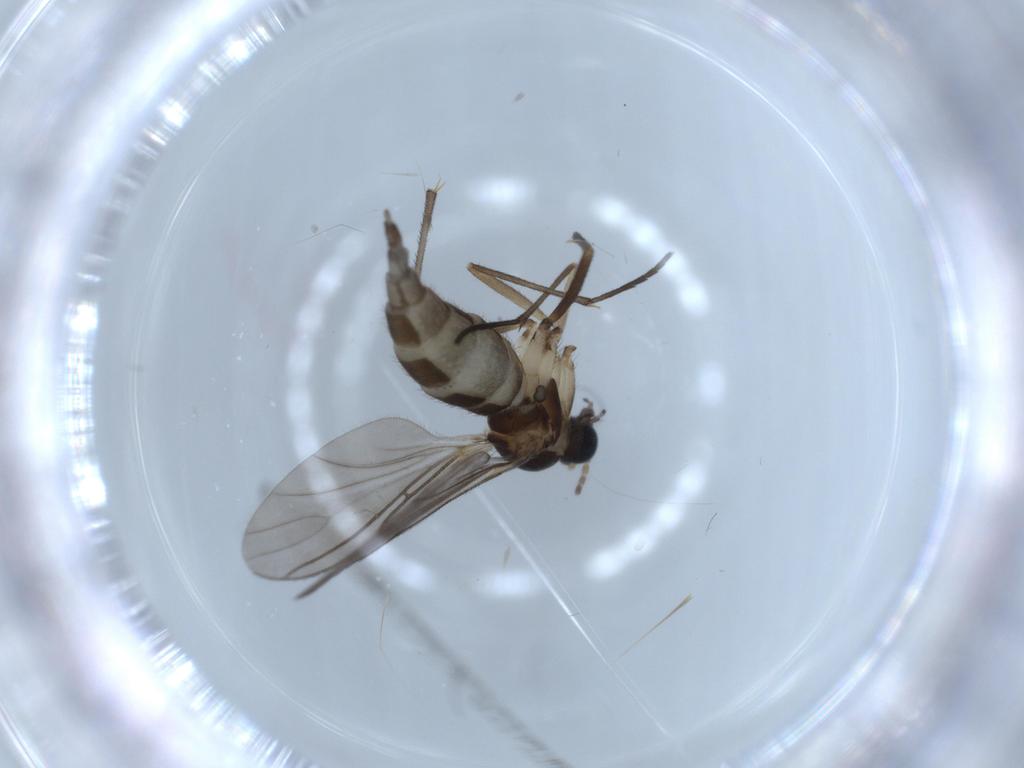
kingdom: Animalia
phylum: Arthropoda
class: Insecta
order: Diptera
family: Sciaridae
